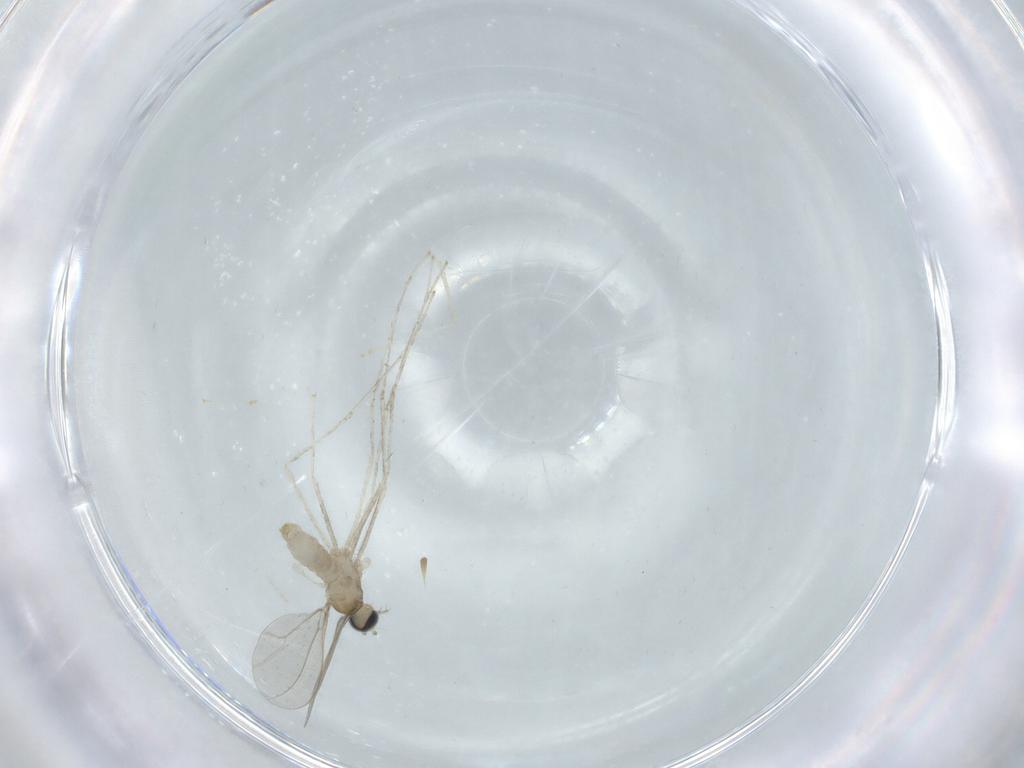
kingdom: Animalia
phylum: Arthropoda
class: Insecta
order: Diptera
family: Cecidomyiidae
